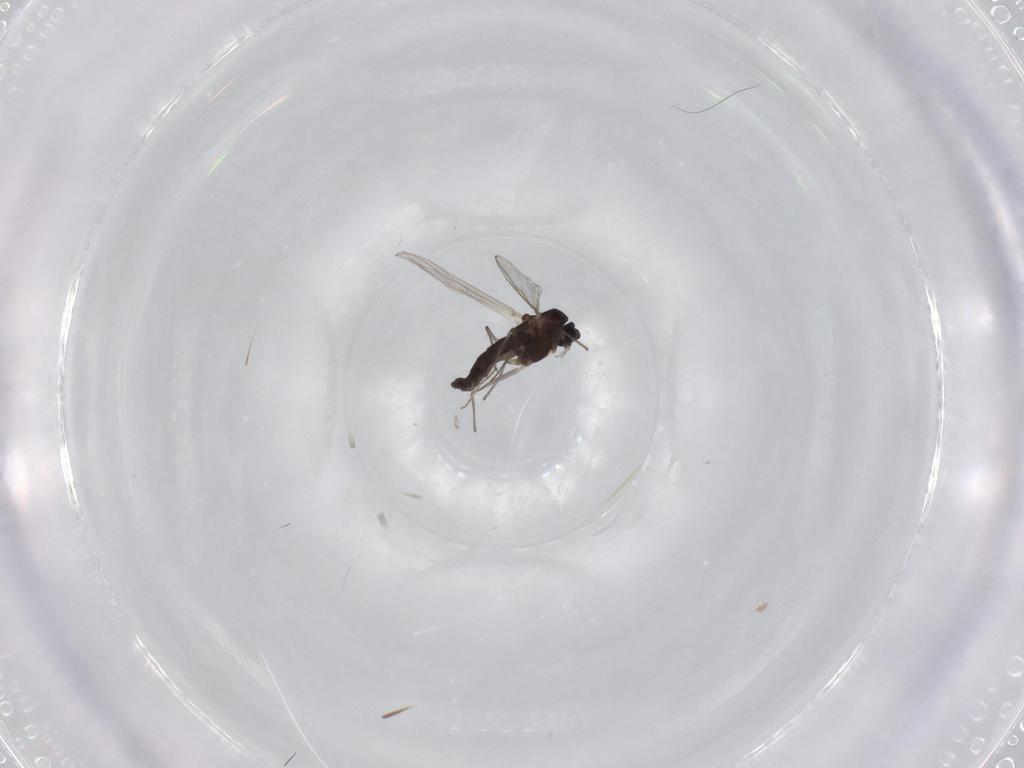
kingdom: Animalia
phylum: Arthropoda
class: Insecta
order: Diptera
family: Chironomidae
